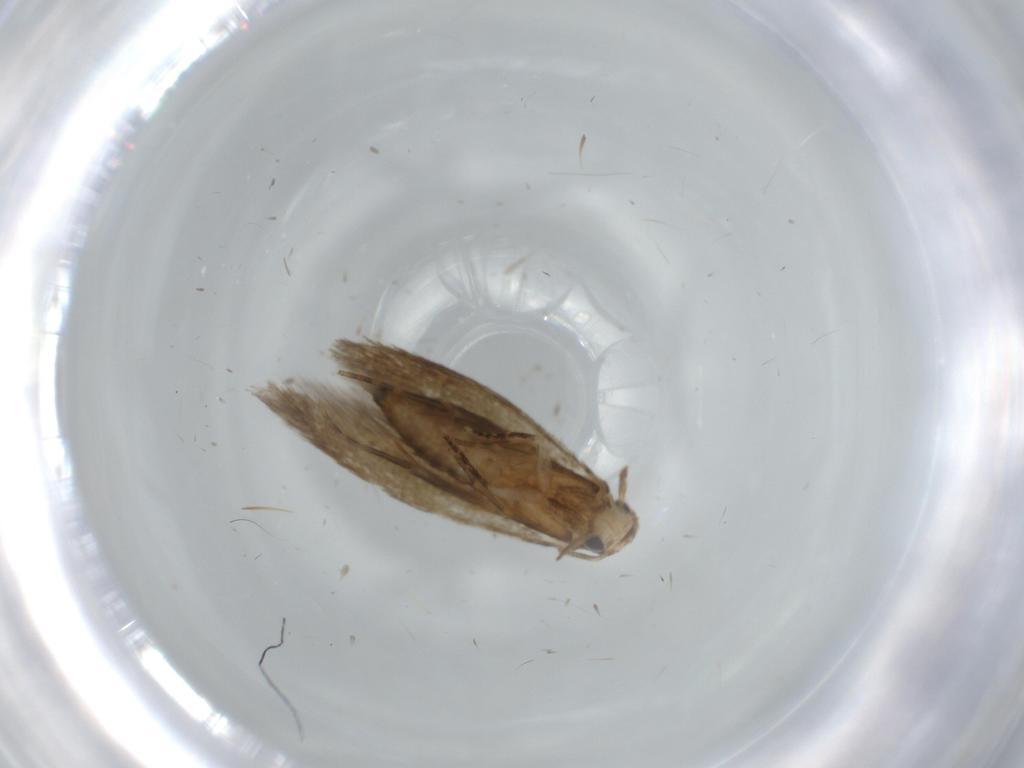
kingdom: Animalia
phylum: Arthropoda
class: Insecta
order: Lepidoptera
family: Tineidae
